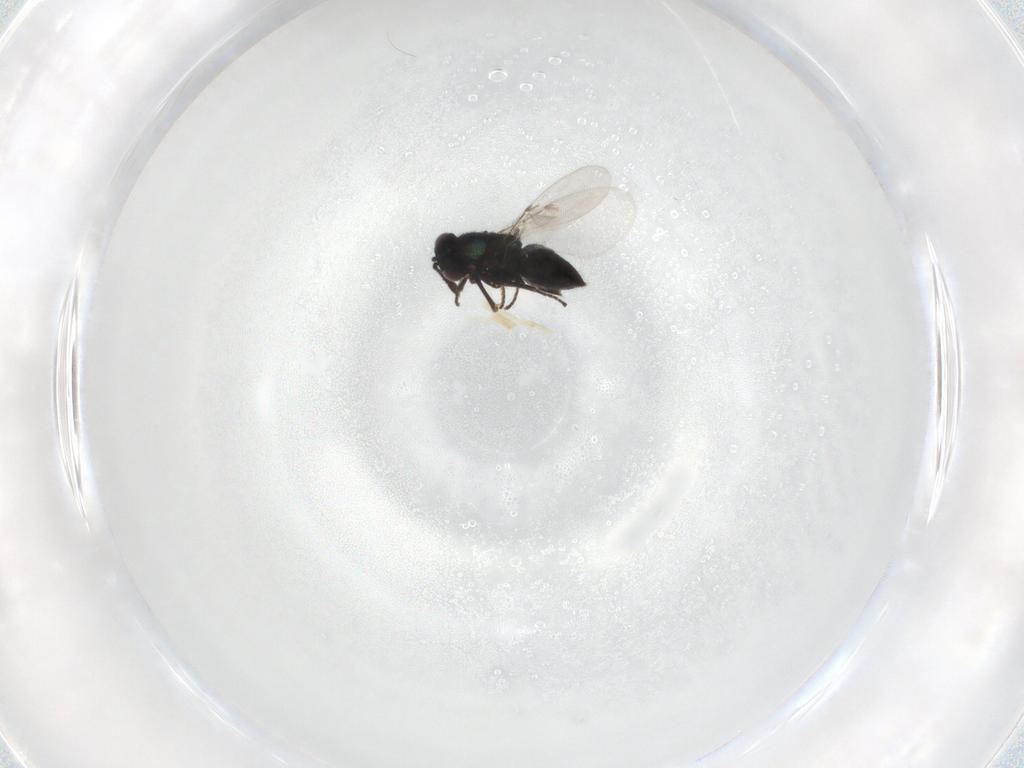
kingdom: Animalia
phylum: Arthropoda
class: Insecta
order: Hymenoptera
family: Encyrtidae
